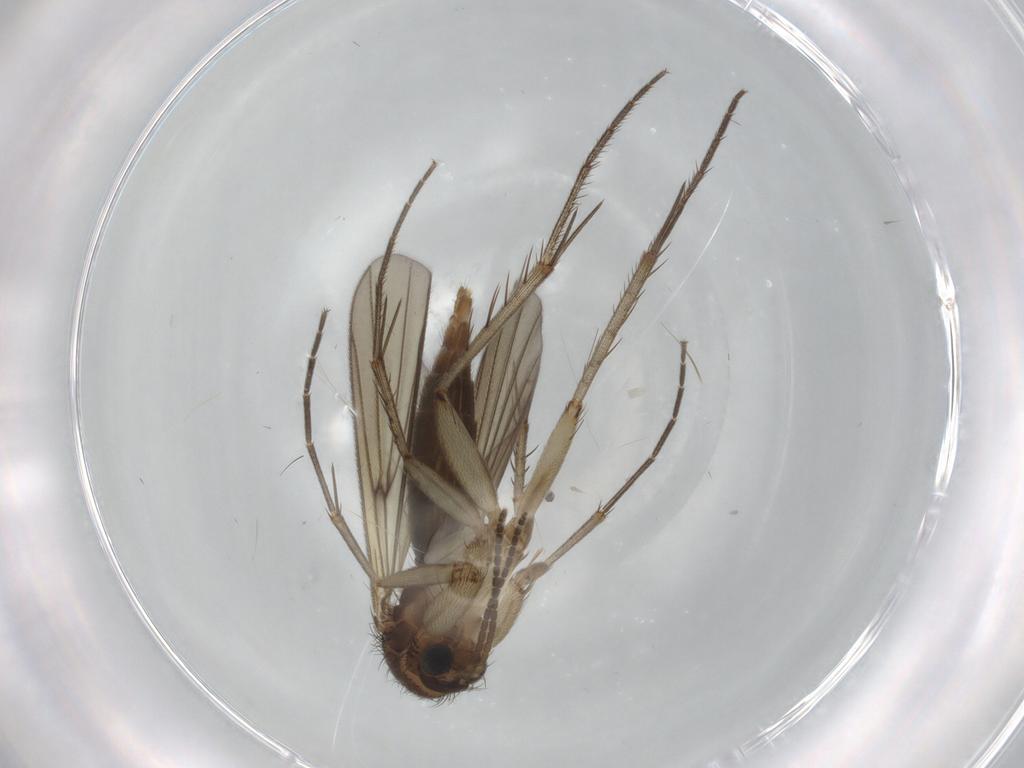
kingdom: Animalia
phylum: Arthropoda
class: Insecta
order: Diptera
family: Mycetophilidae
